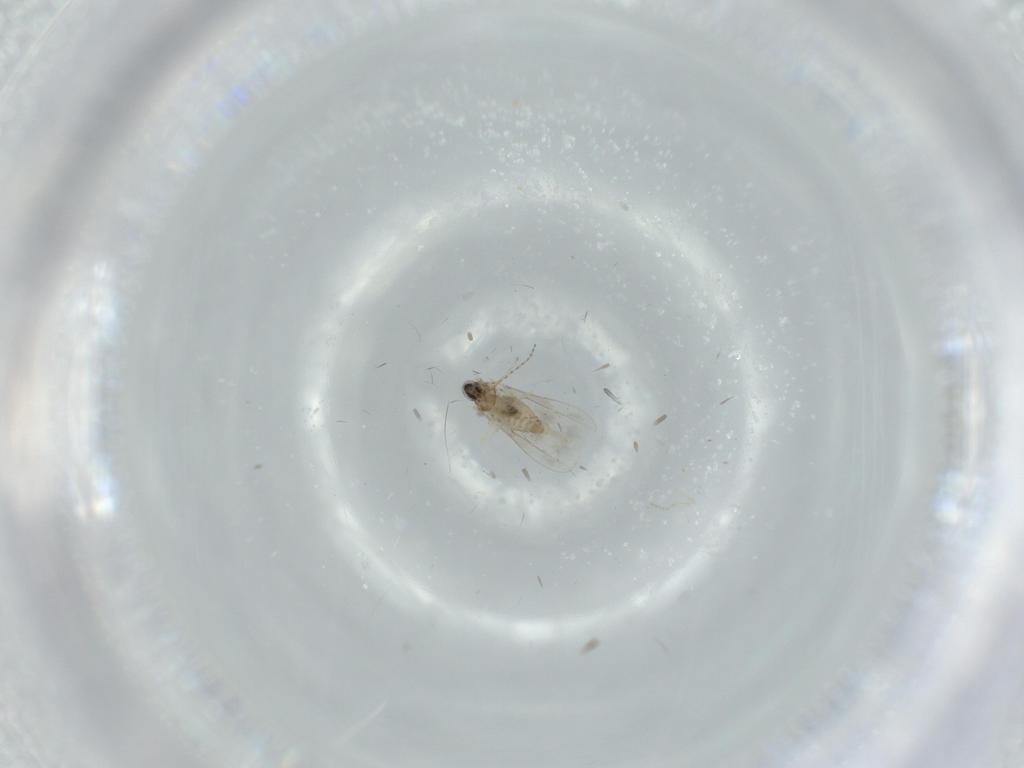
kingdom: Animalia
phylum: Arthropoda
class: Insecta
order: Diptera
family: Cecidomyiidae
